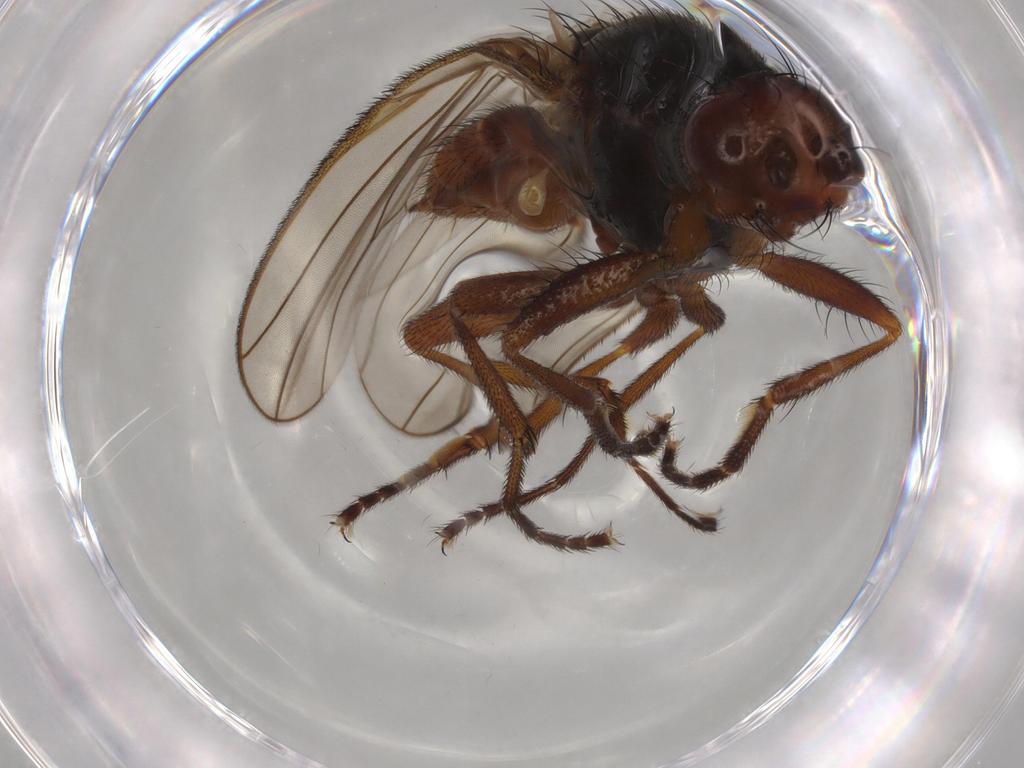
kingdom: Animalia
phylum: Arthropoda
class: Insecta
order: Diptera
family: Heleomyzidae
